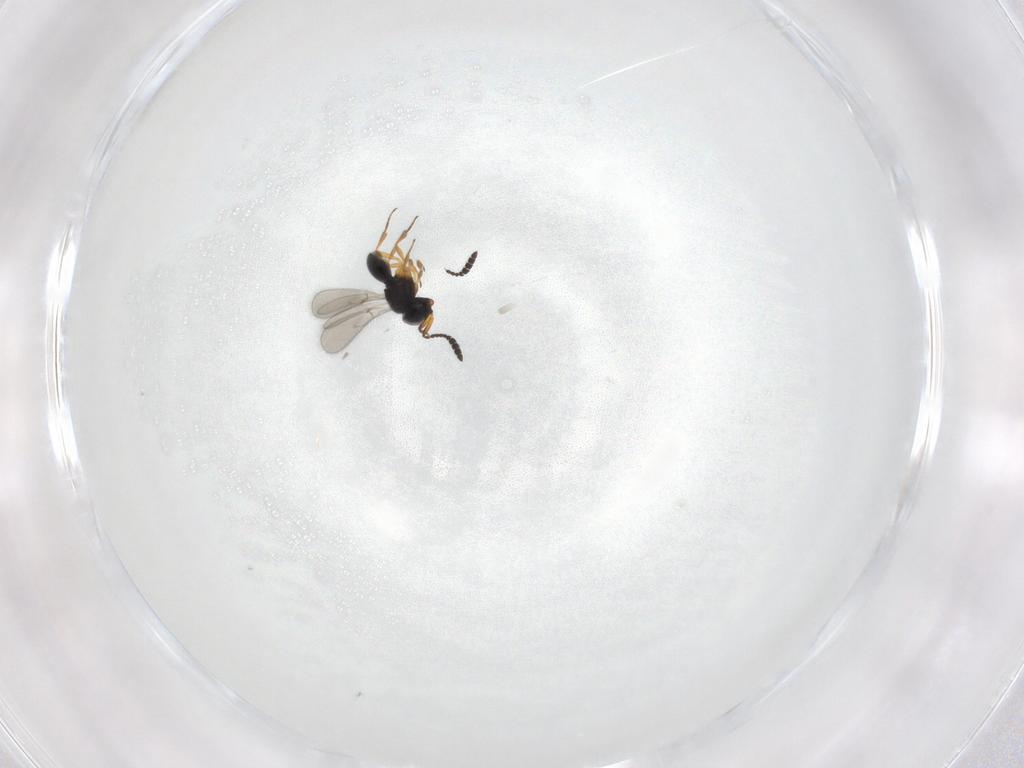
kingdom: Animalia
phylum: Arthropoda
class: Insecta
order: Hymenoptera
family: Scelionidae
